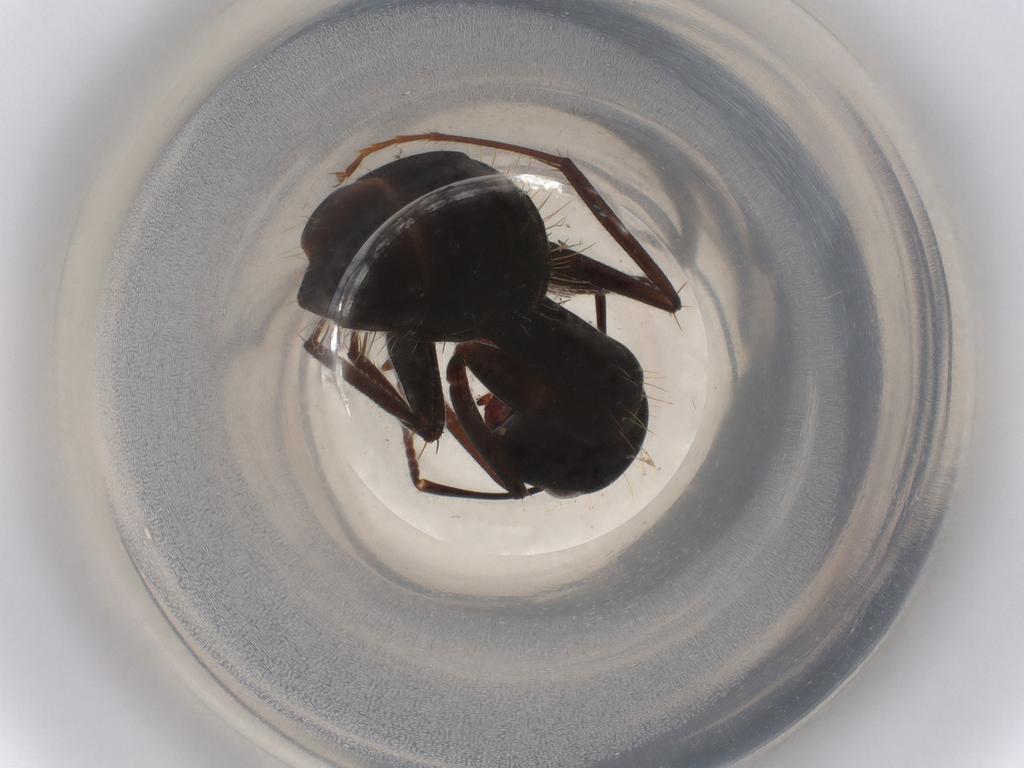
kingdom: Animalia
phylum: Arthropoda
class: Insecta
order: Hymenoptera
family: Formicidae
